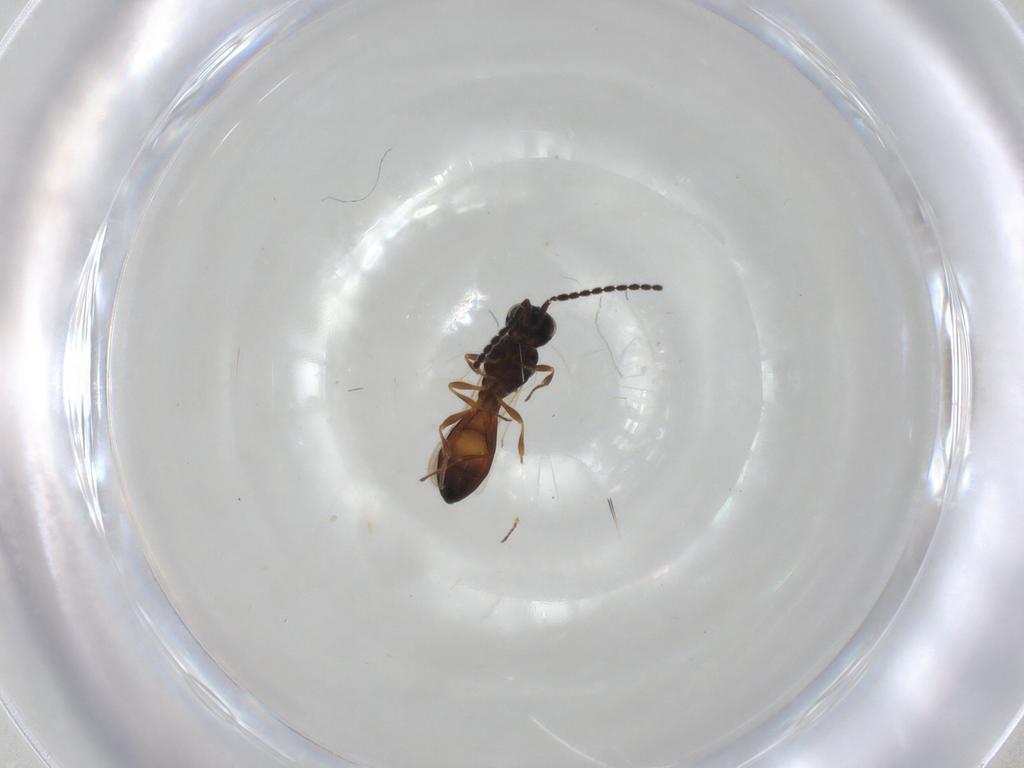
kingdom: Animalia
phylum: Arthropoda
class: Insecta
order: Hymenoptera
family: Scelionidae
